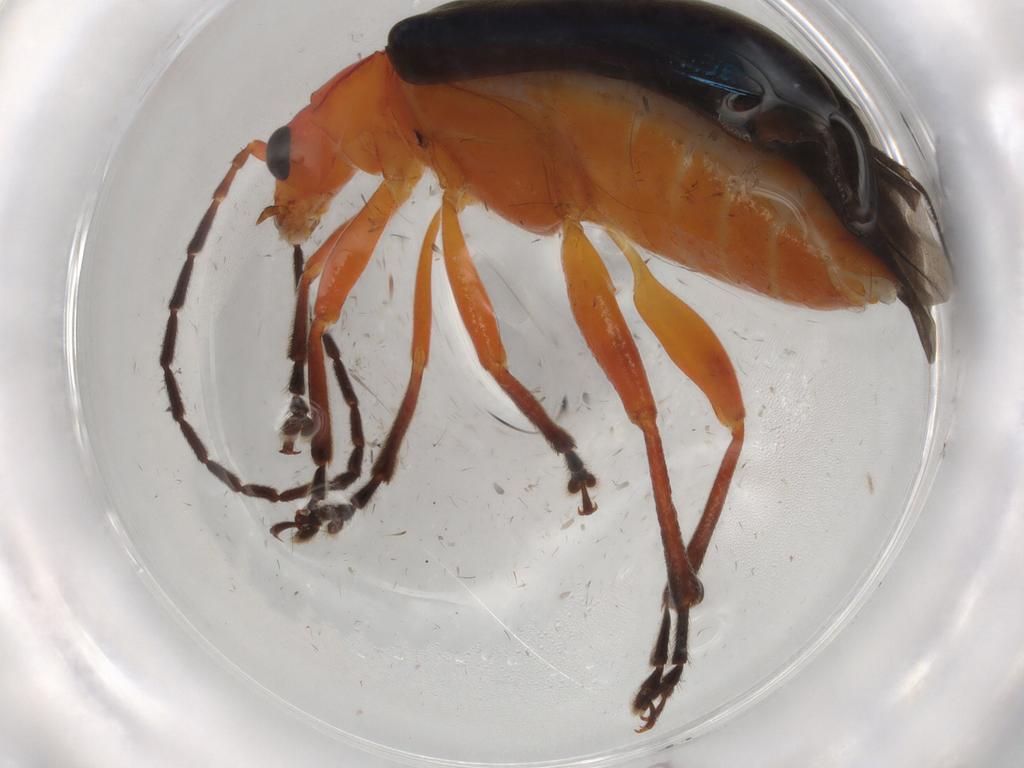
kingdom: Animalia
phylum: Arthropoda
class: Insecta
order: Coleoptera
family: Chrysomelidae
